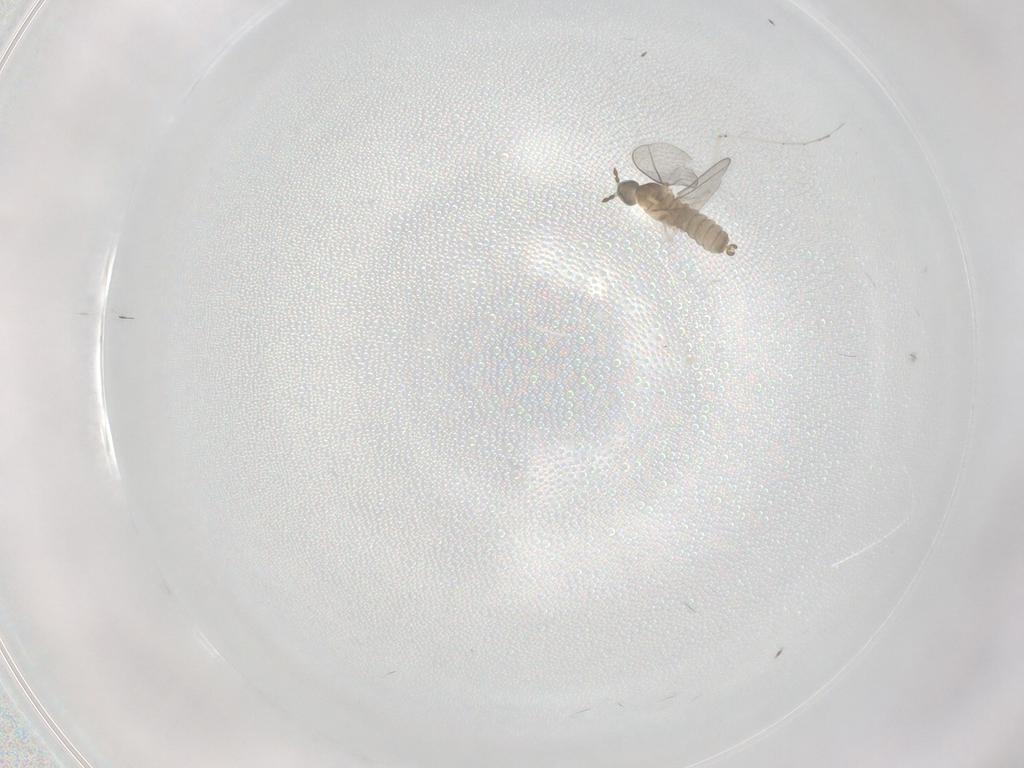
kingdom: Animalia
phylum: Arthropoda
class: Insecta
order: Diptera
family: Cecidomyiidae
